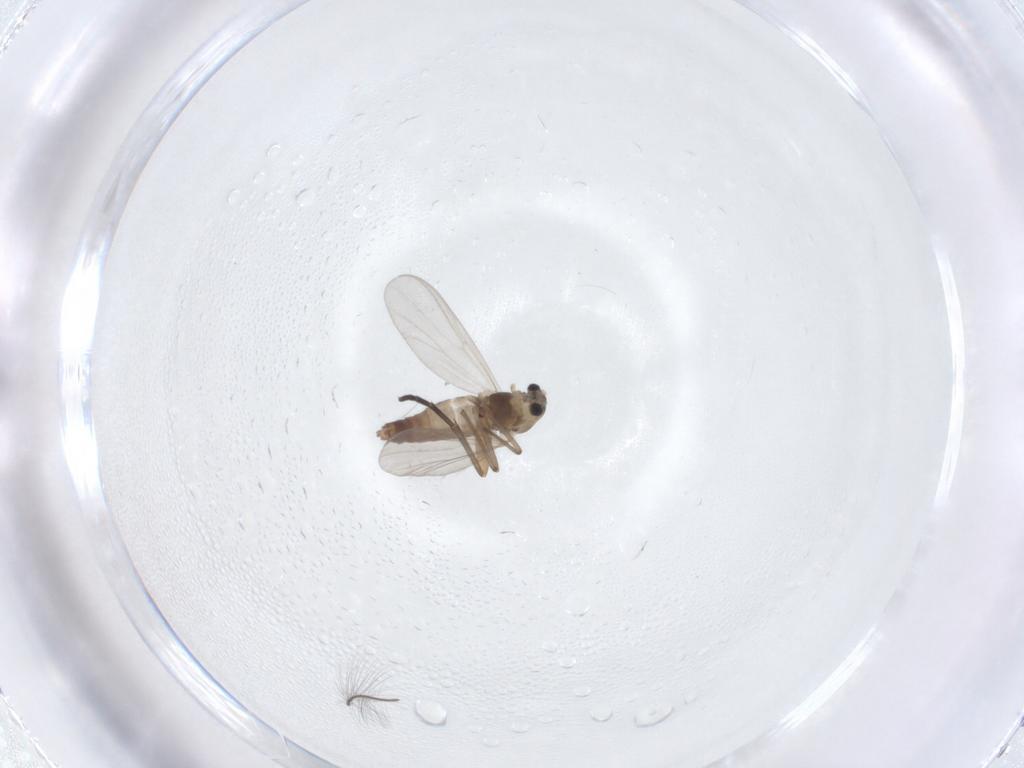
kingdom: Animalia
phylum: Arthropoda
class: Insecta
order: Diptera
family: Chironomidae
